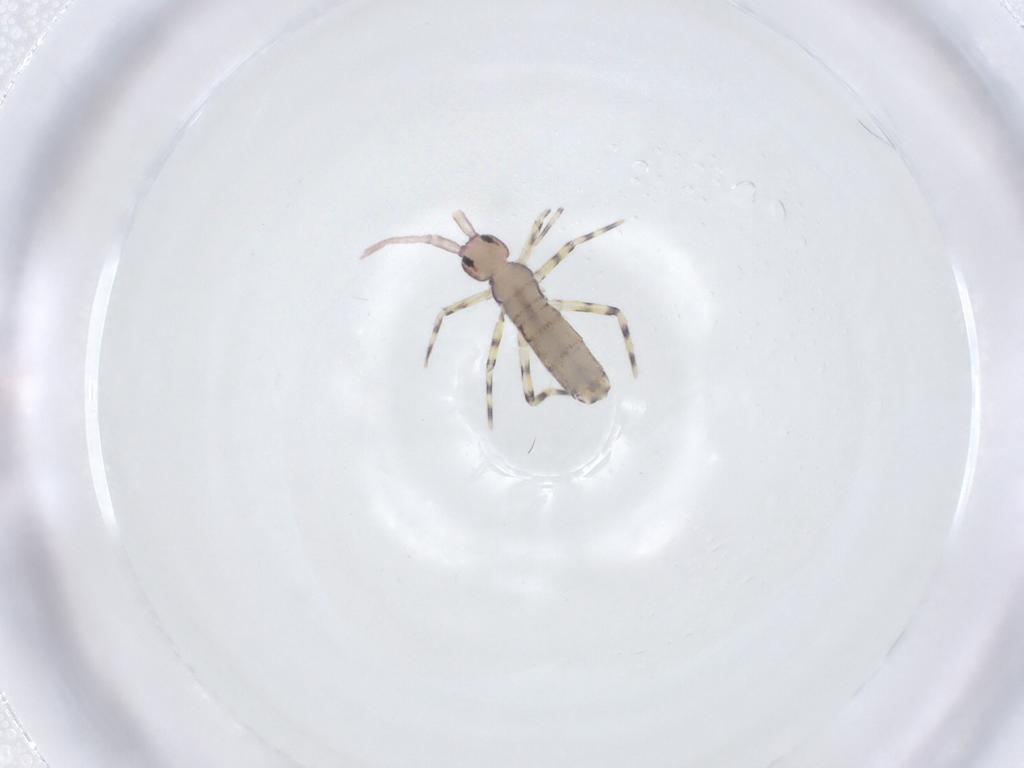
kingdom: Animalia
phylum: Arthropoda
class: Collembola
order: Entomobryomorpha
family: Entomobryidae
